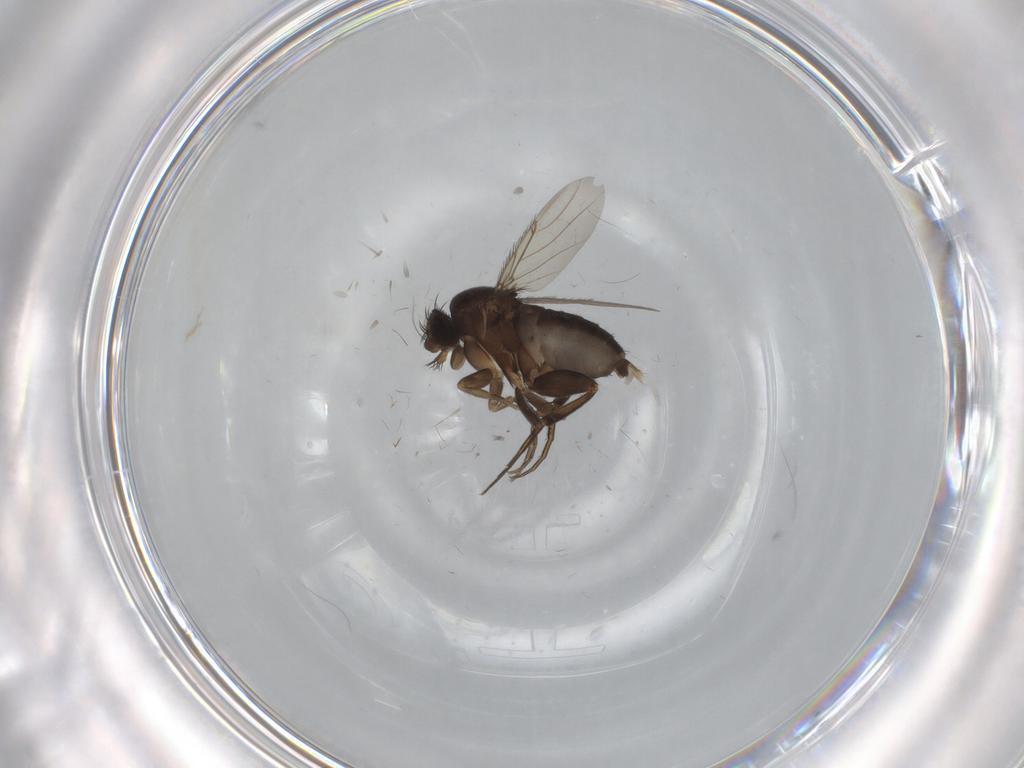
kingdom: Animalia
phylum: Arthropoda
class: Insecta
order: Diptera
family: Phoridae
